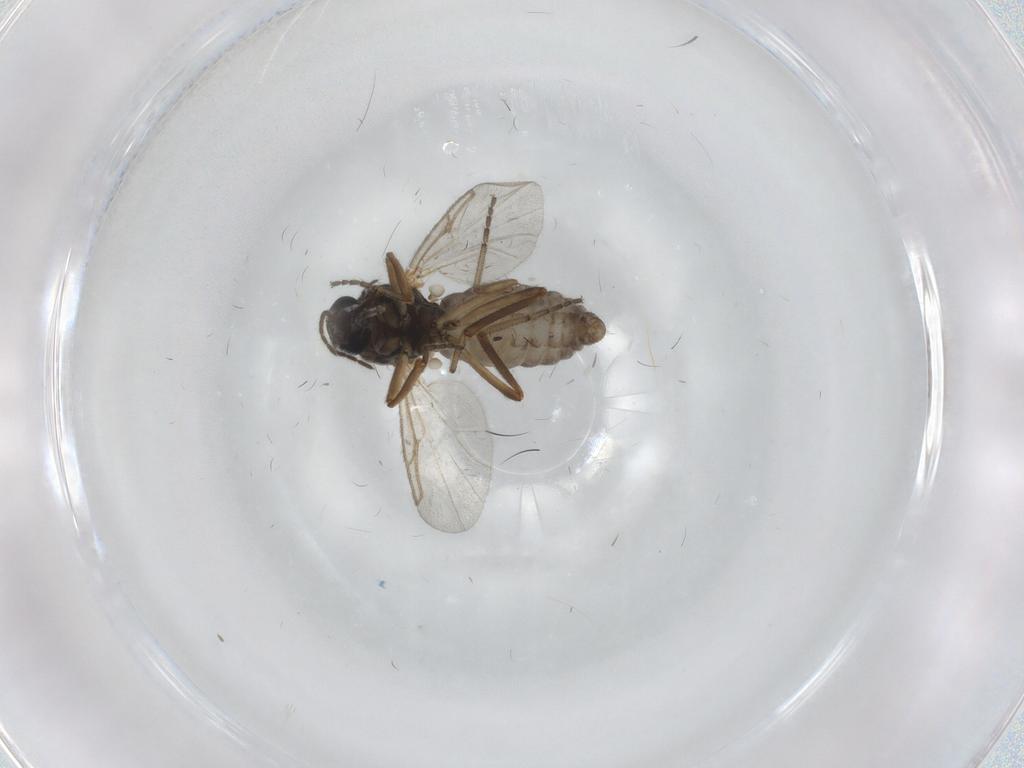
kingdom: Animalia
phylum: Arthropoda
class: Insecta
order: Diptera
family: Ceratopogonidae
